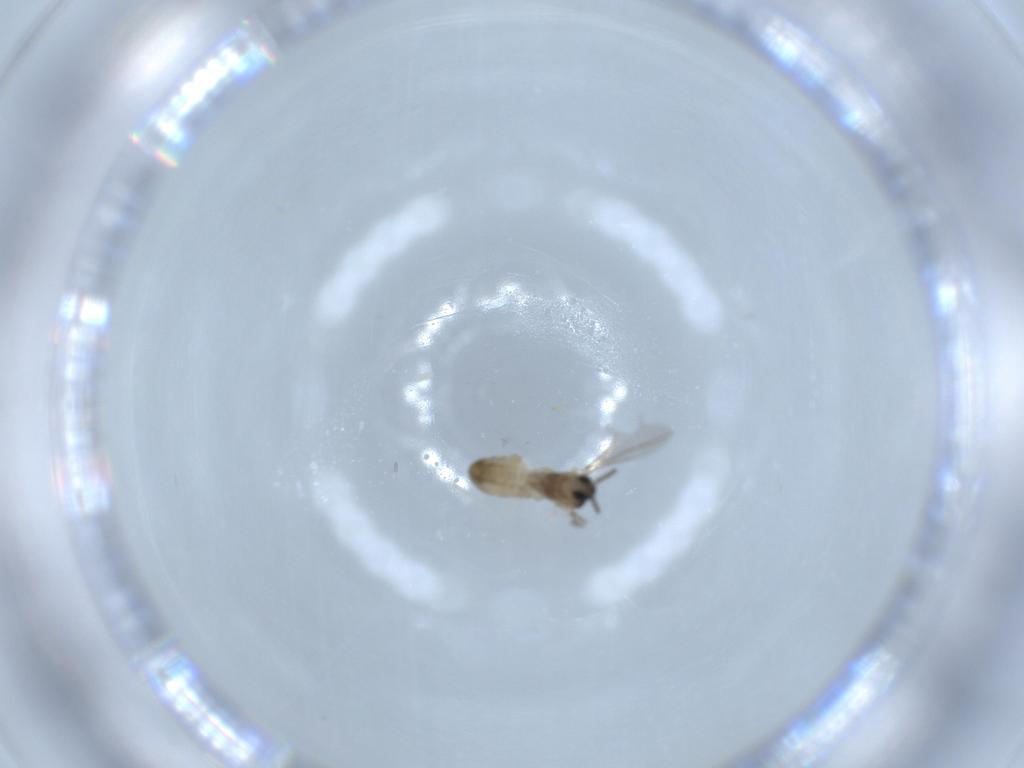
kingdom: Animalia
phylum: Arthropoda
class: Insecta
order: Diptera
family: Cecidomyiidae
